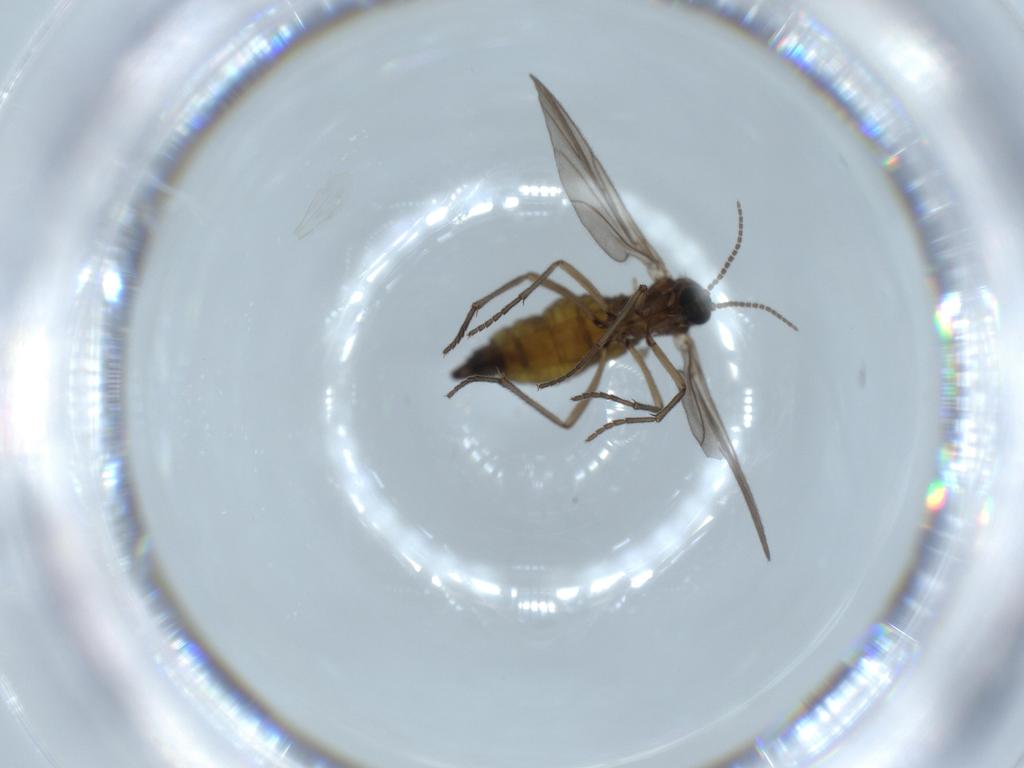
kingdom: Animalia
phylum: Arthropoda
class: Insecta
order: Diptera
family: Sciaridae
